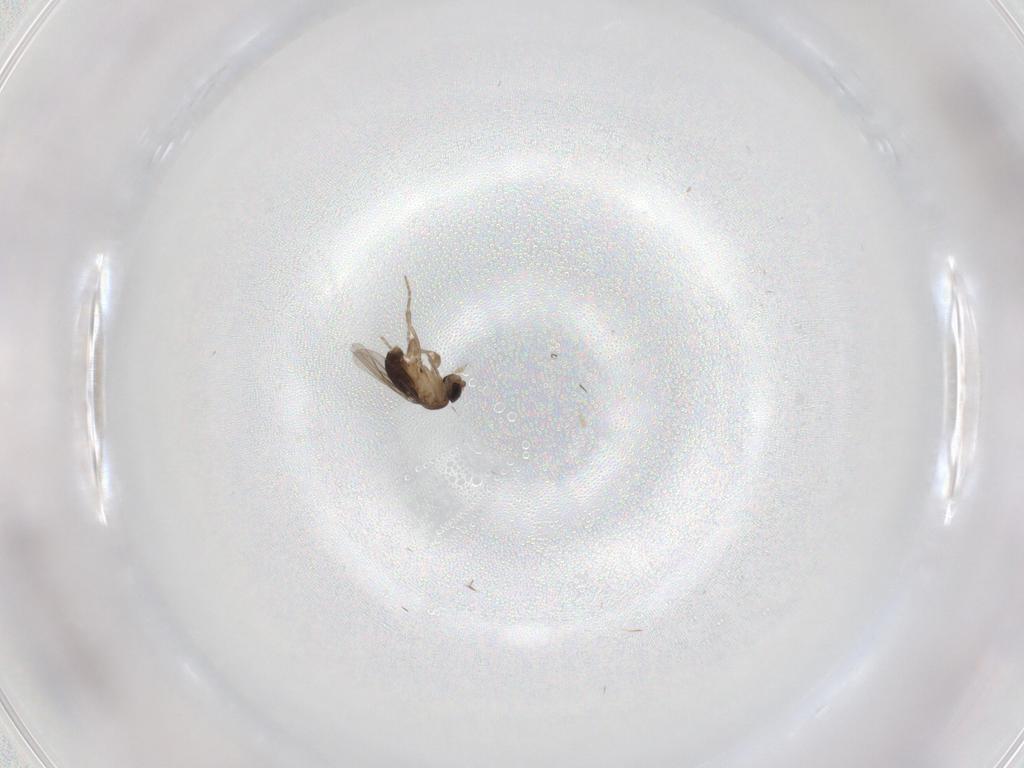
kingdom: Animalia
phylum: Arthropoda
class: Insecta
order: Diptera
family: Phoridae
